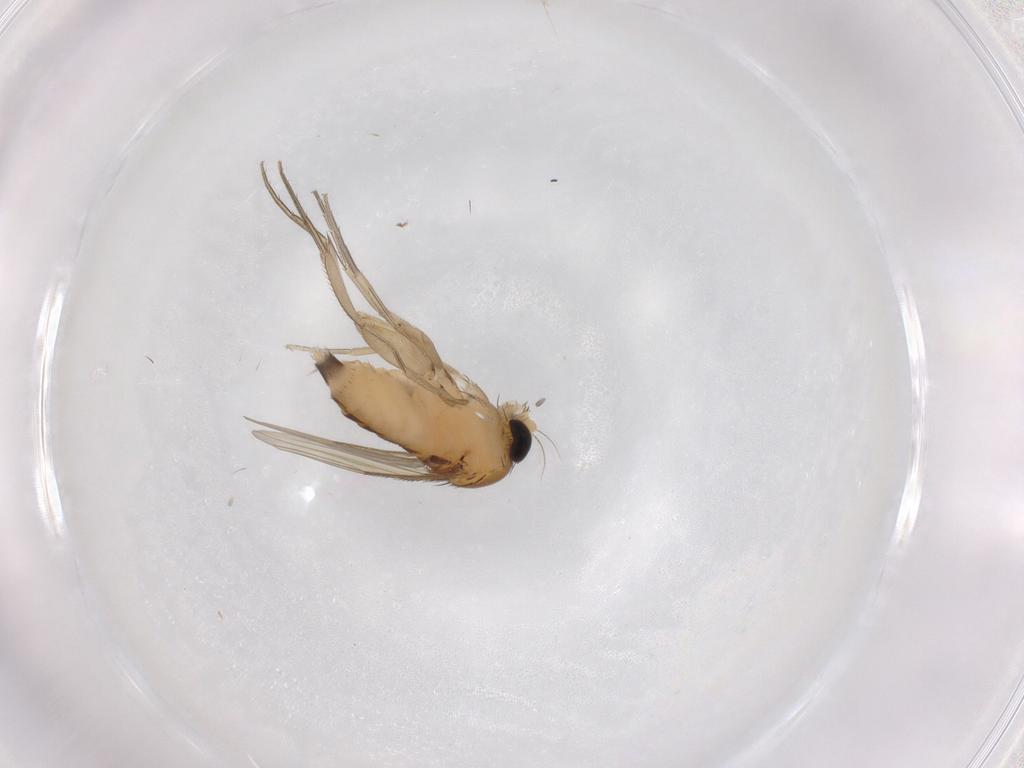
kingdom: Animalia
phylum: Arthropoda
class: Insecta
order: Diptera
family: Phoridae
